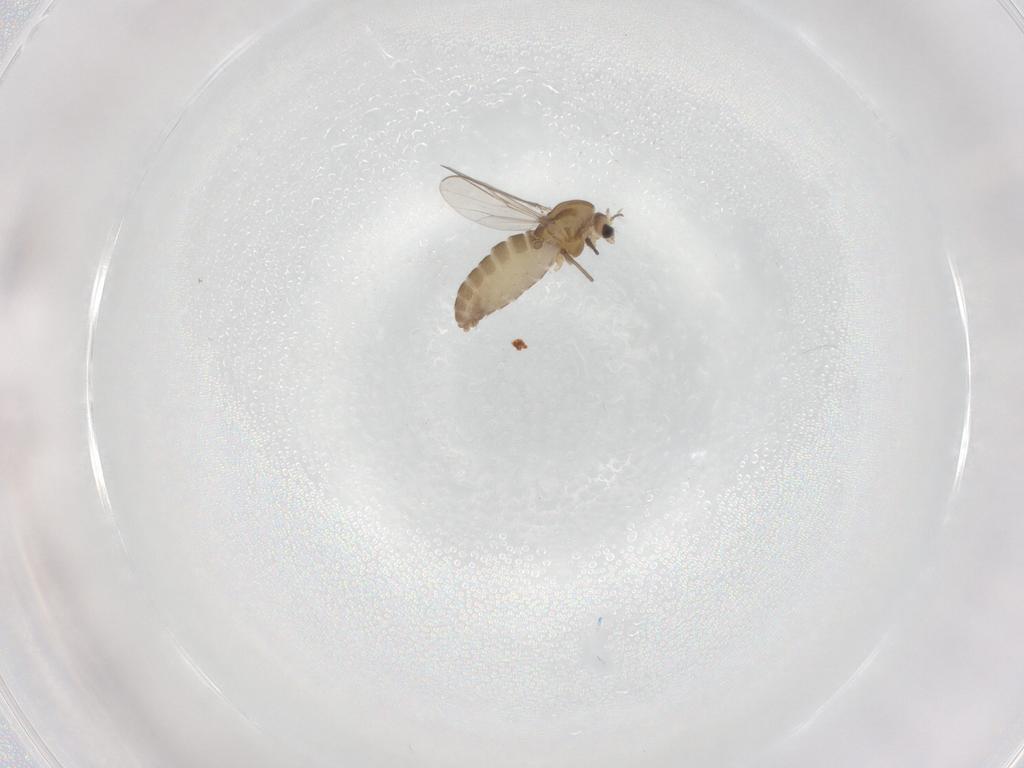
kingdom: Animalia
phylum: Arthropoda
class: Insecta
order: Diptera
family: Chironomidae
